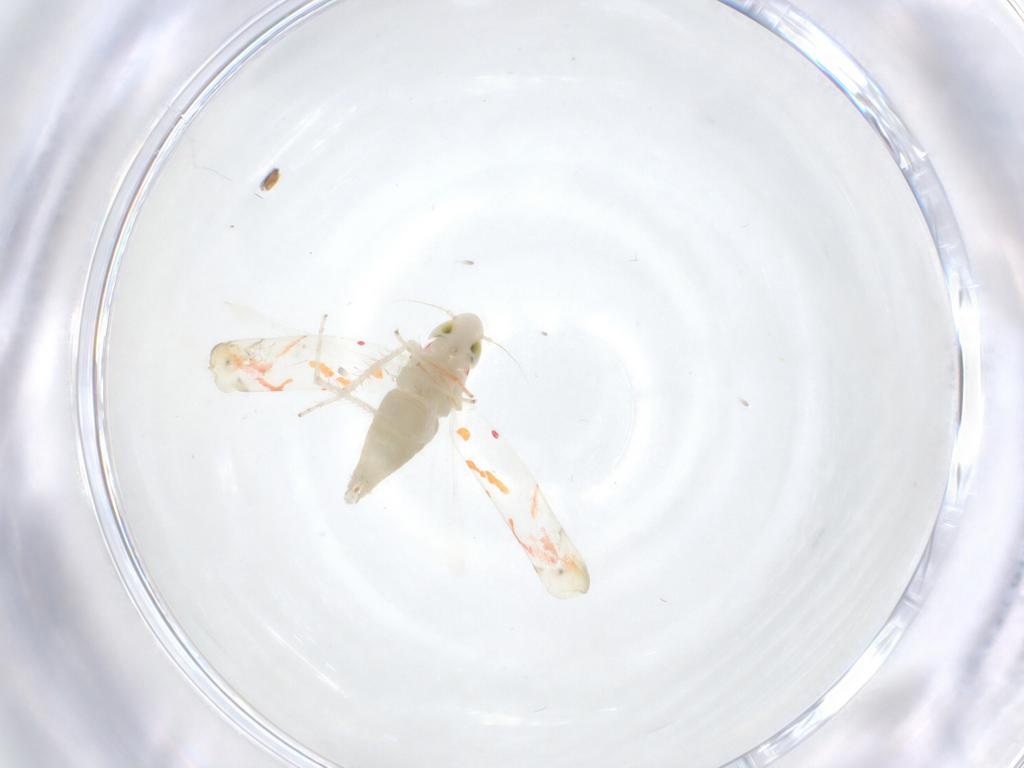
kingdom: Animalia
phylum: Arthropoda
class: Insecta
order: Hemiptera
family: Cicadellidae
